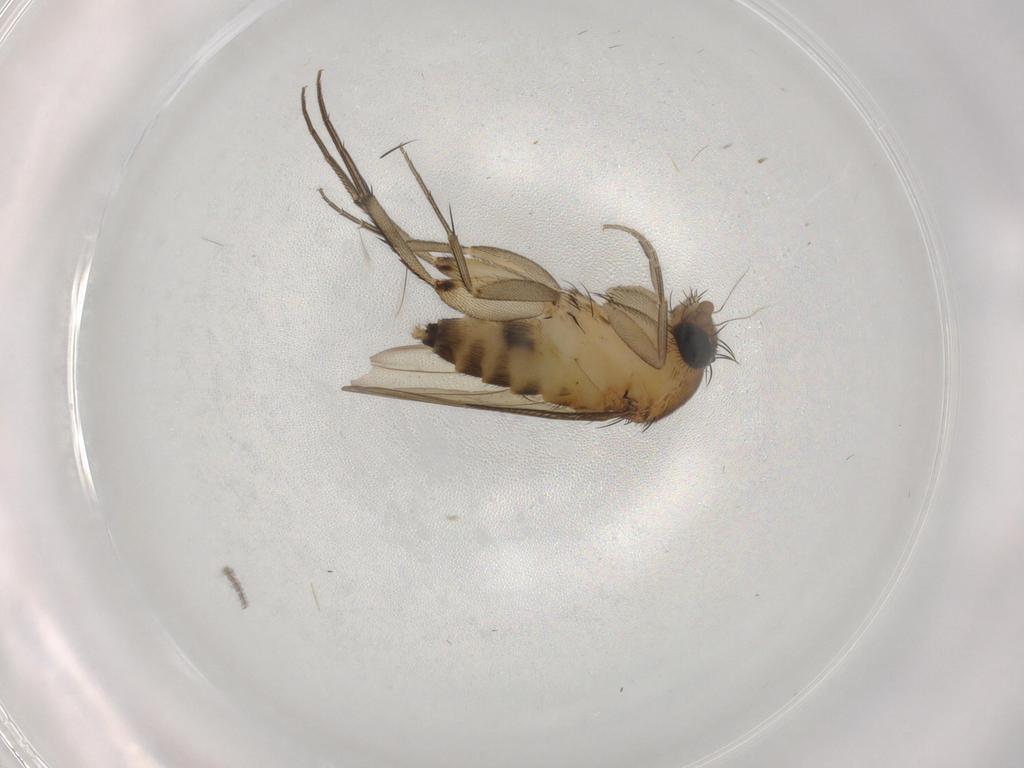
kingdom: Animalia
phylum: Arthropoda
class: Insecta
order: Diptera
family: Phoridae
